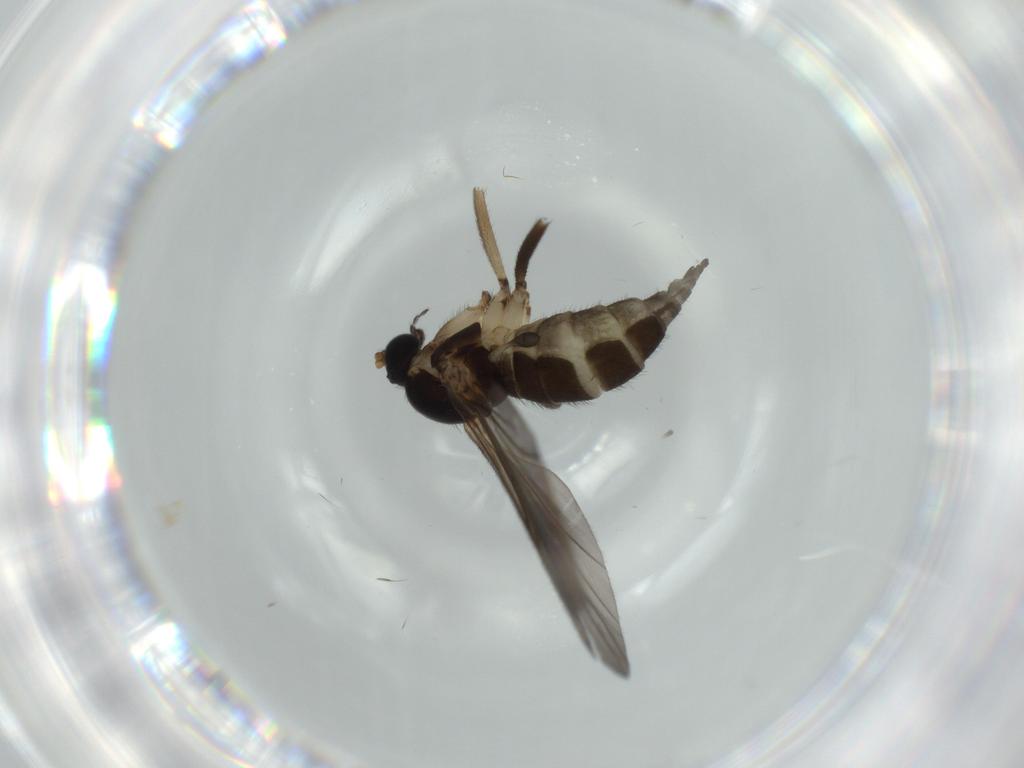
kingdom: Animalia
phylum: Arthropoda
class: Insecta
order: Diptera
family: Sciaridae
